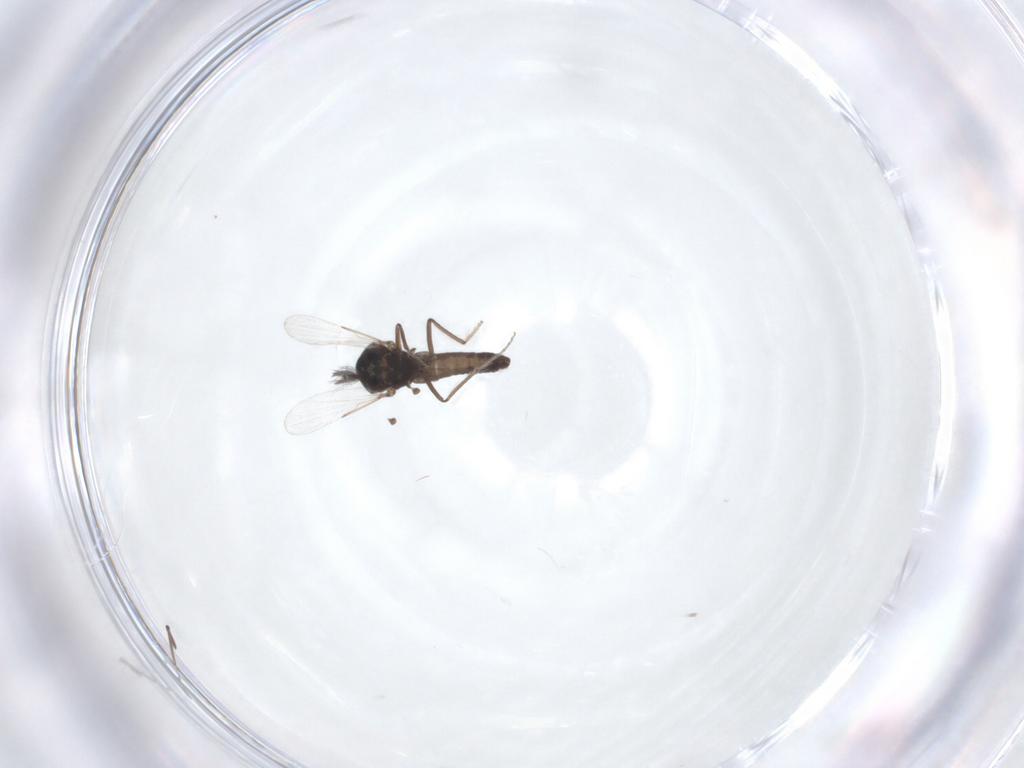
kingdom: Animalia
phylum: Arthropoda
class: Insecta
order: Diptera
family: Ceratopogonidae
